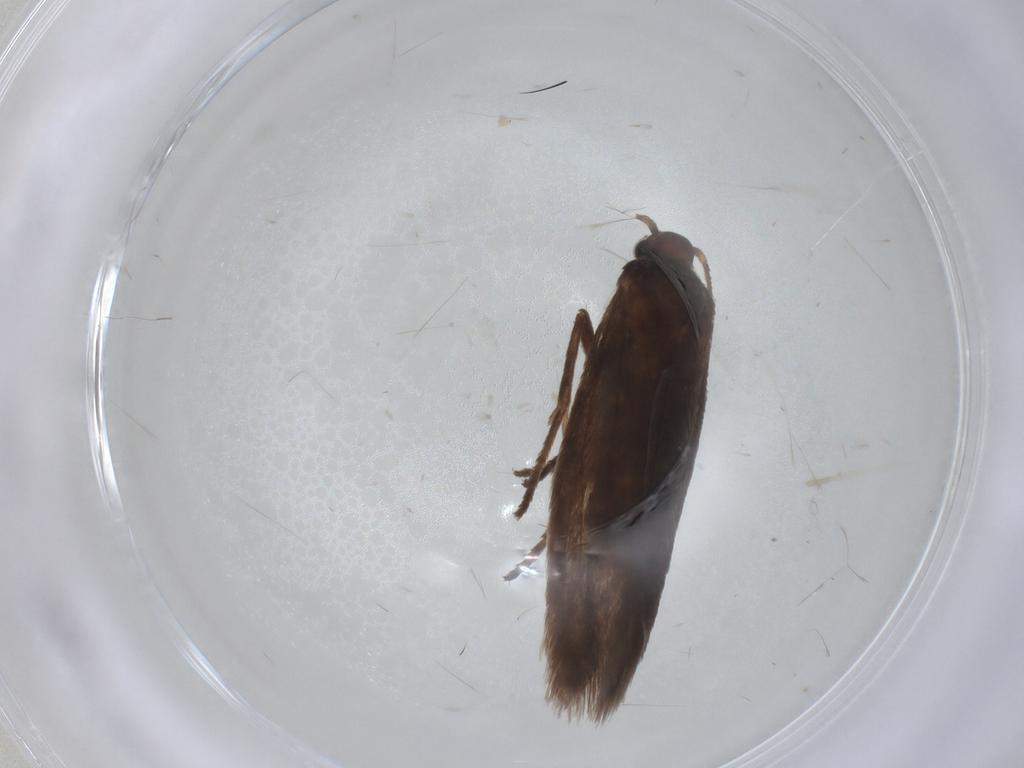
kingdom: Animalia
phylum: Arthropoda
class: Insecta
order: Lepidoptera
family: Limacodidae
